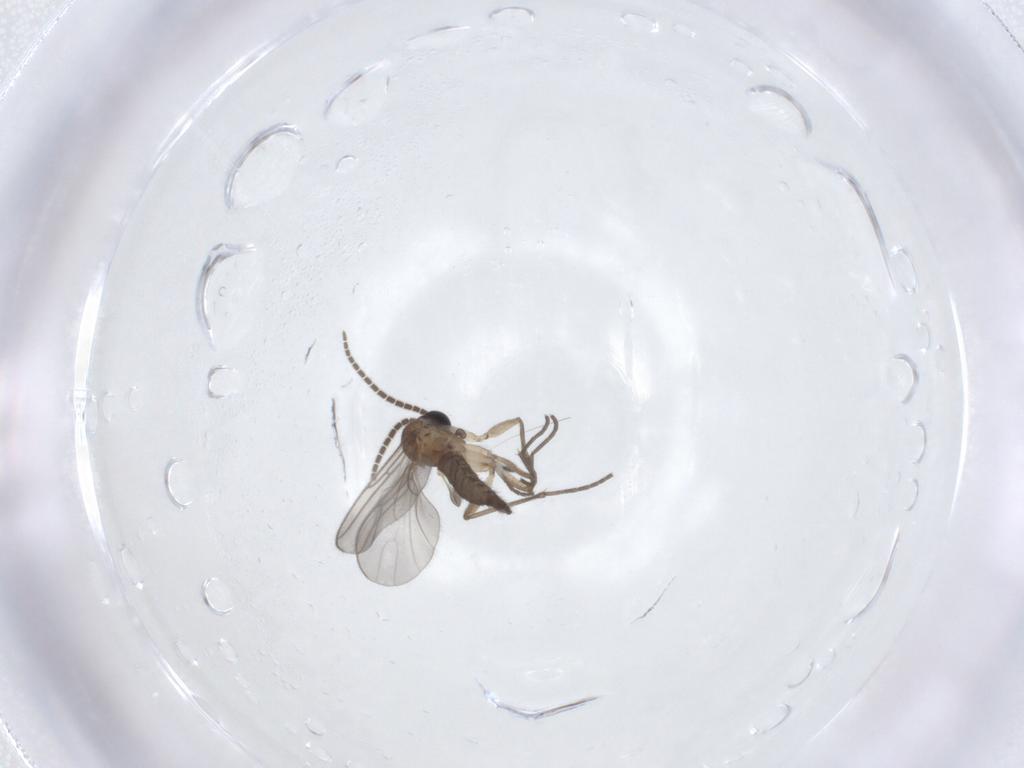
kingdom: Animalia
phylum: Arthropoda
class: Insecta
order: Diptera
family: Sciaridae
